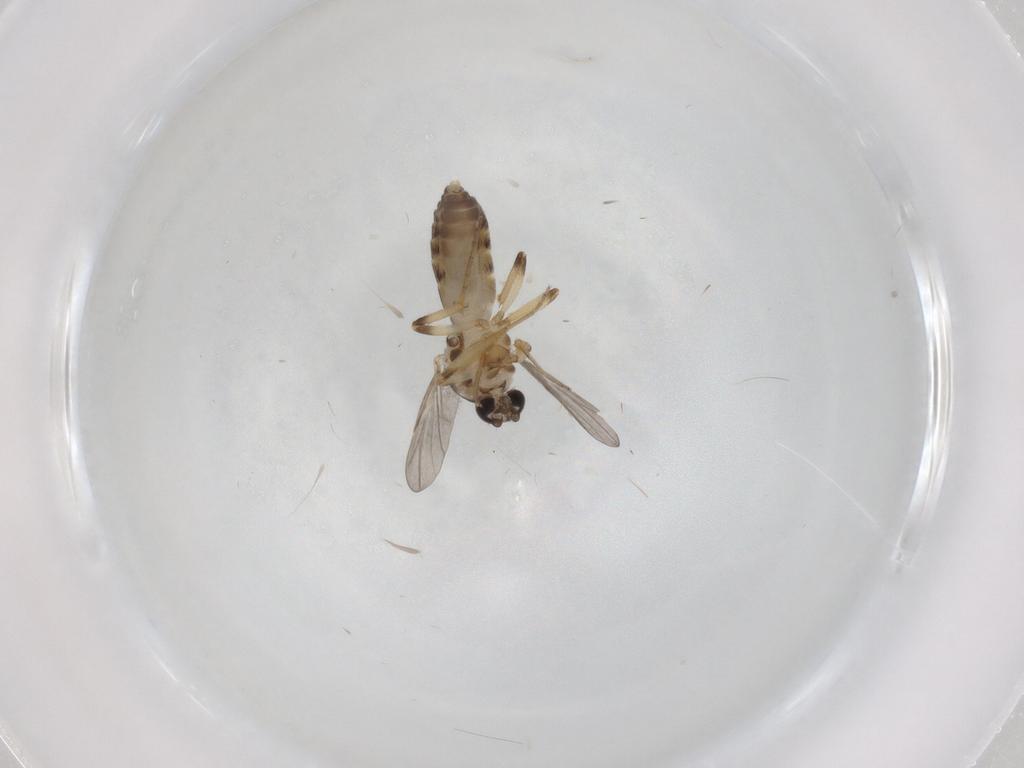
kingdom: Animalia
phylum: Arthropoda
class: Insecta
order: Diptera
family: Ceratopogonidae
